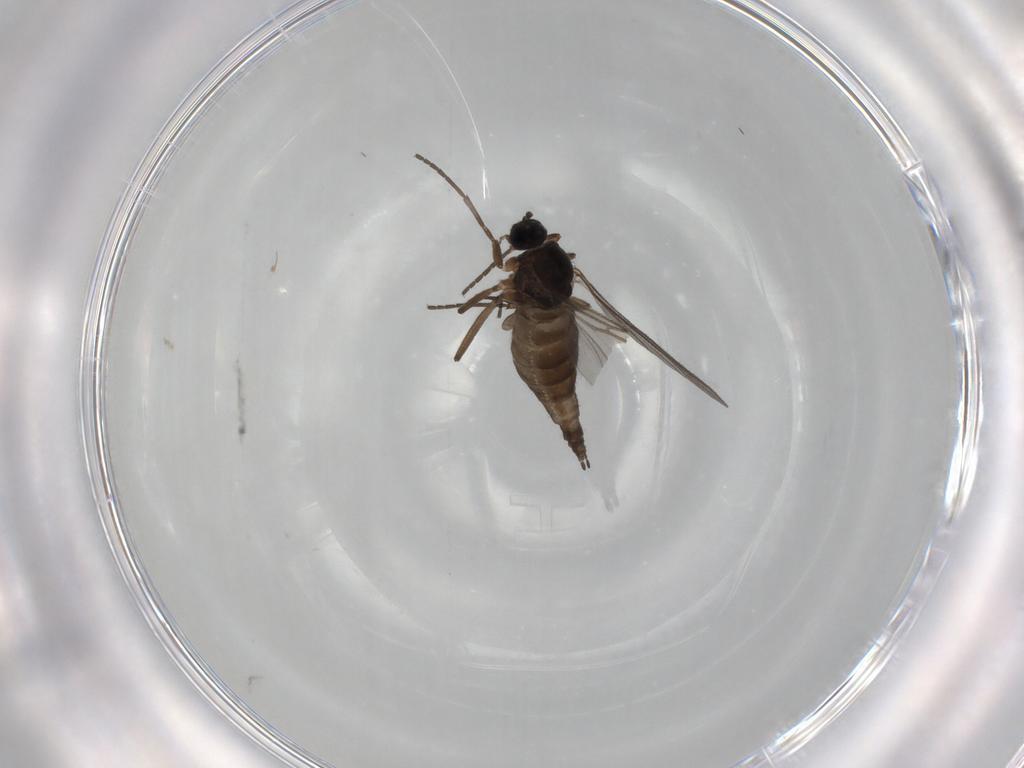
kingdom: Animalia
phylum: Arthropoda
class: Insecta
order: Diptera
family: Sciaridae
